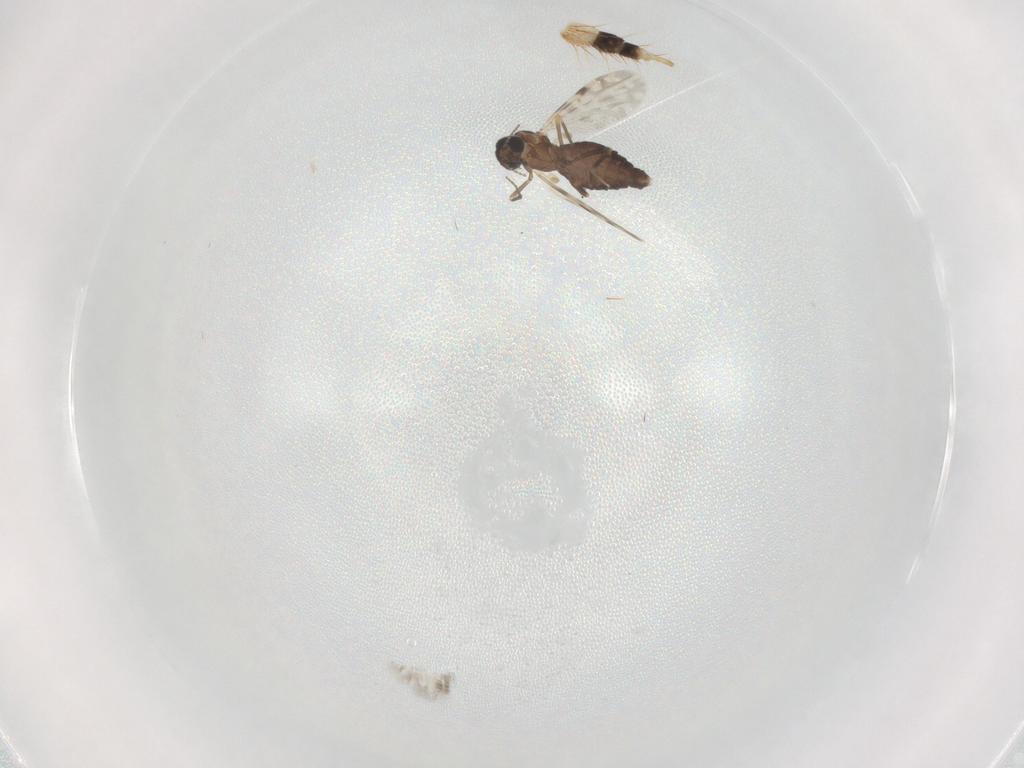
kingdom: Animalia
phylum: Arthropoda
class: Insecta
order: Diptera
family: Ceratopogonidae
